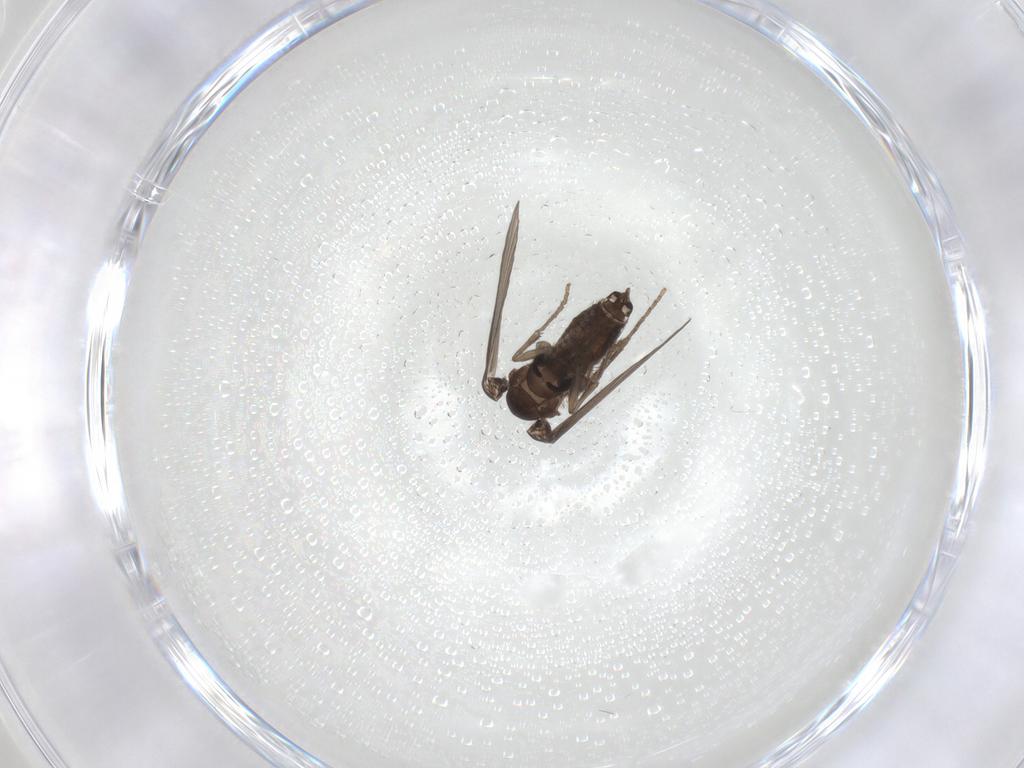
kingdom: Animalia
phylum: Arthropoda
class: Insecta
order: Diptera
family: Psychodidae
